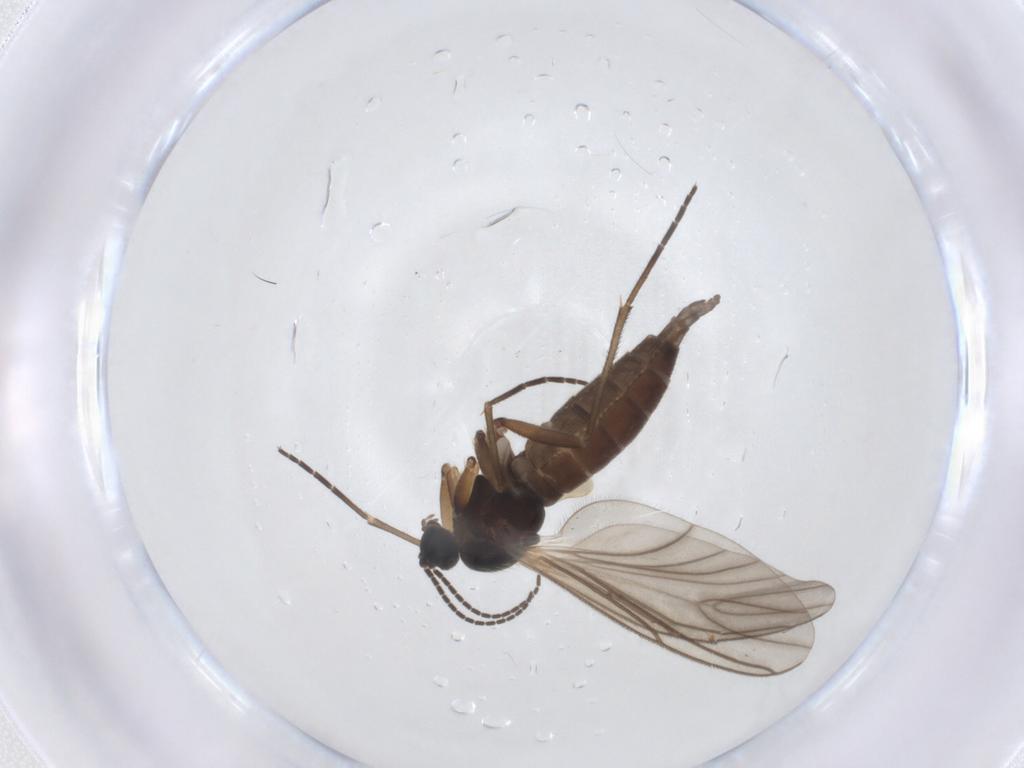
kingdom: Animalia
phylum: Arthropoda
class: Insecta
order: Diptera
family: Sciaridae
